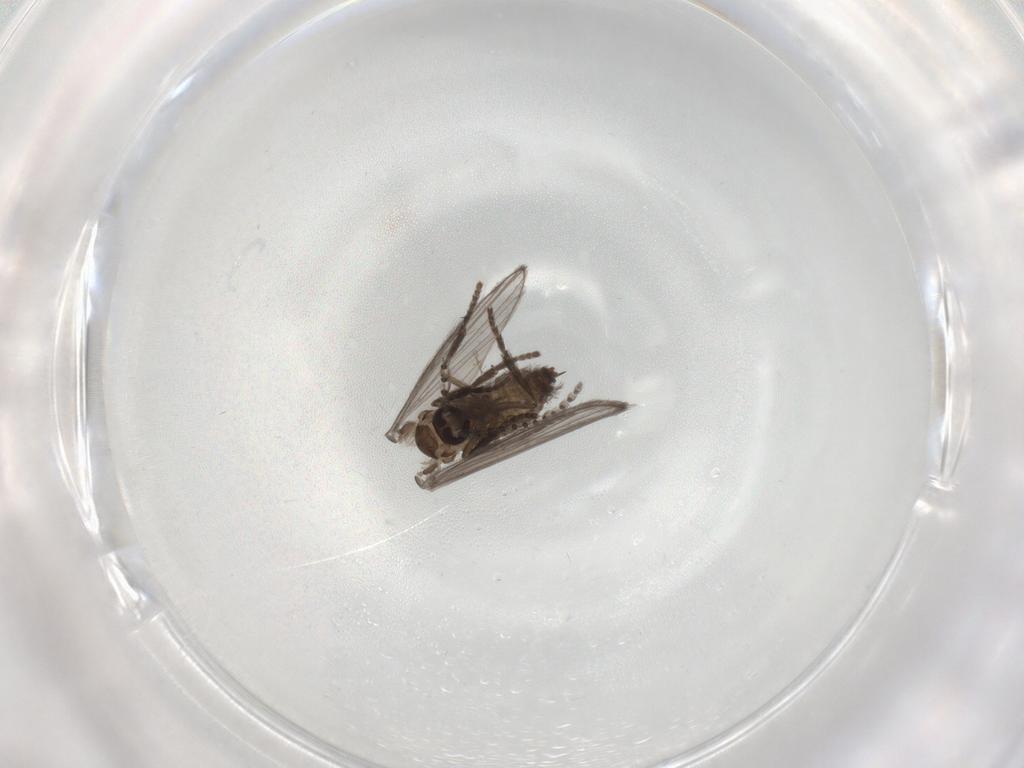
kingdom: Animalia
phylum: Arthropoda
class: Insecta
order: Diptera
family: Psychodidae
